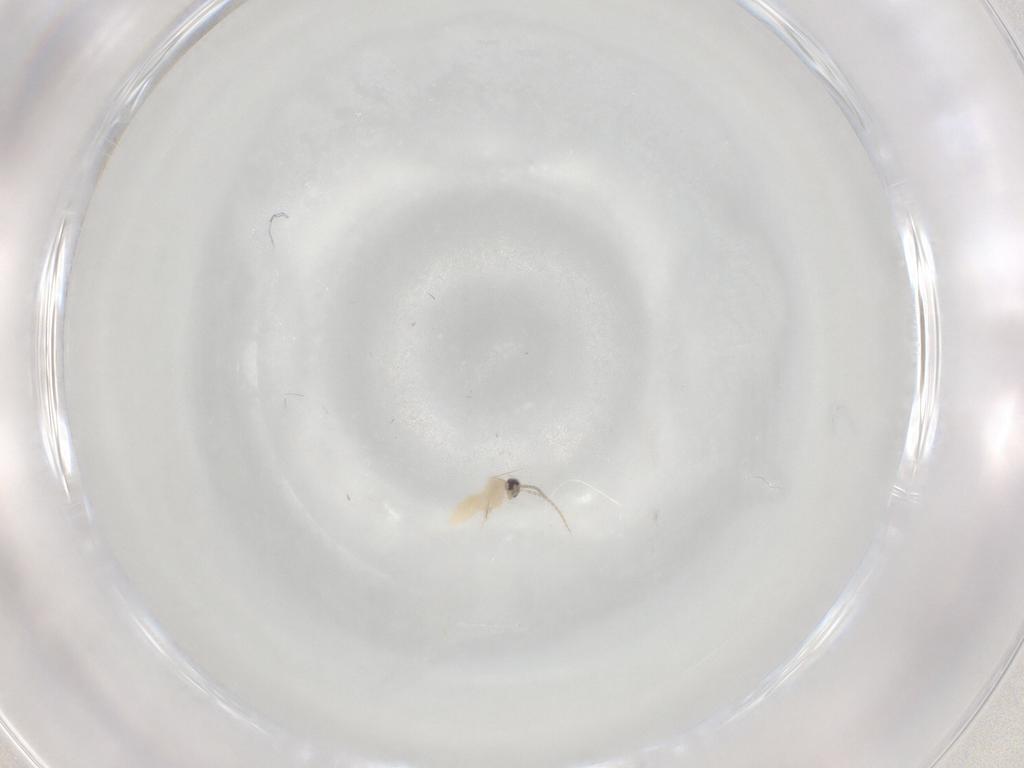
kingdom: Animalia
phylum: Arthropoda
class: Insecta
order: Diptera
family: Cecidomyiidae
